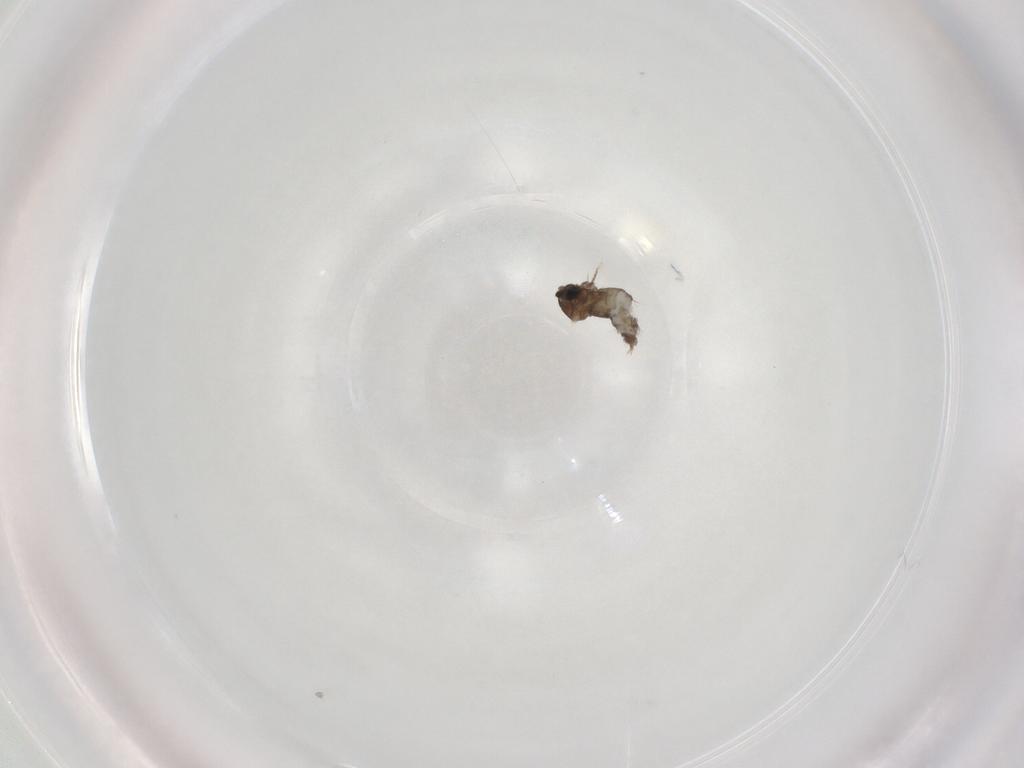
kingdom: Animalia
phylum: Arthropoda
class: Insecta
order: Diptera
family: Cecidomyiidae
